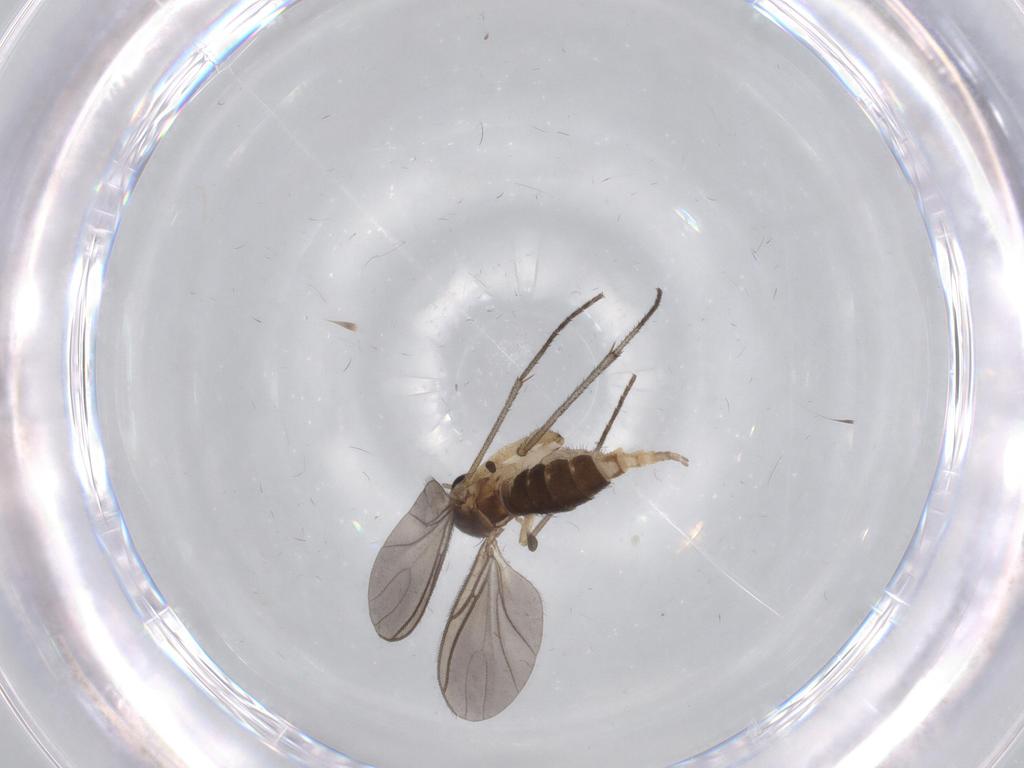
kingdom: Animalia
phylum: Arthropoda
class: Insecta
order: Diptera
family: Sciaridae
